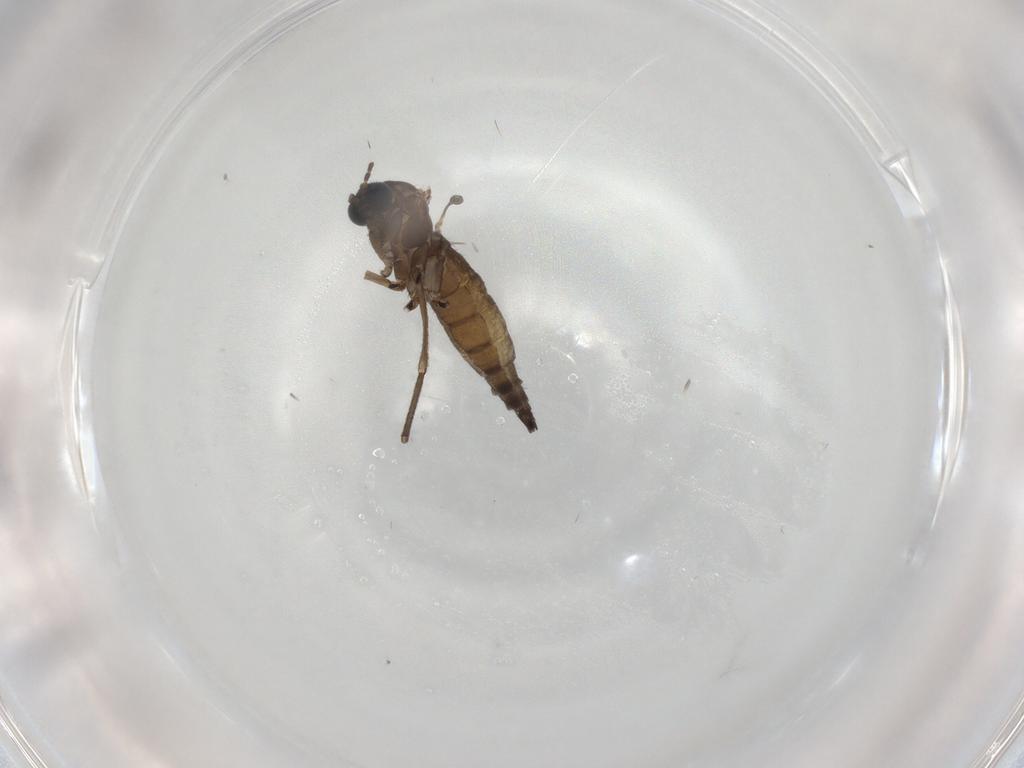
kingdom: Animalia
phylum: Arthropoda
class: Insecta
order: Diptera
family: Sciaridae
